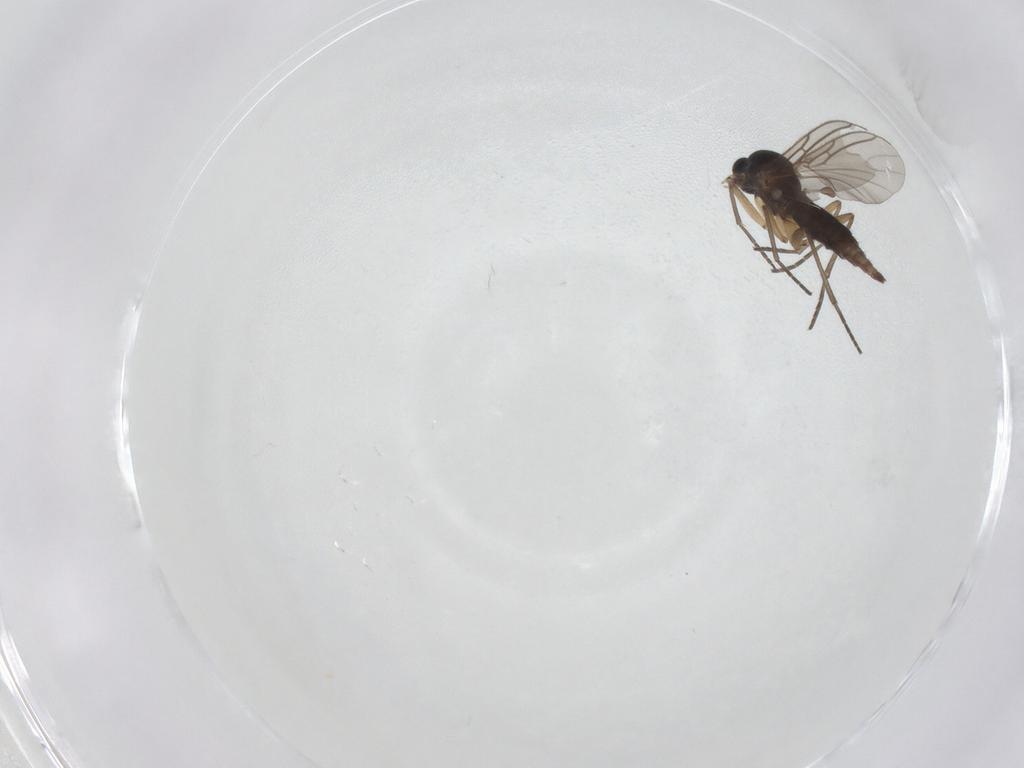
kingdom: Animalia
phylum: Arthropoda
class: Insecta
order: Diptera
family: Sciaridae
